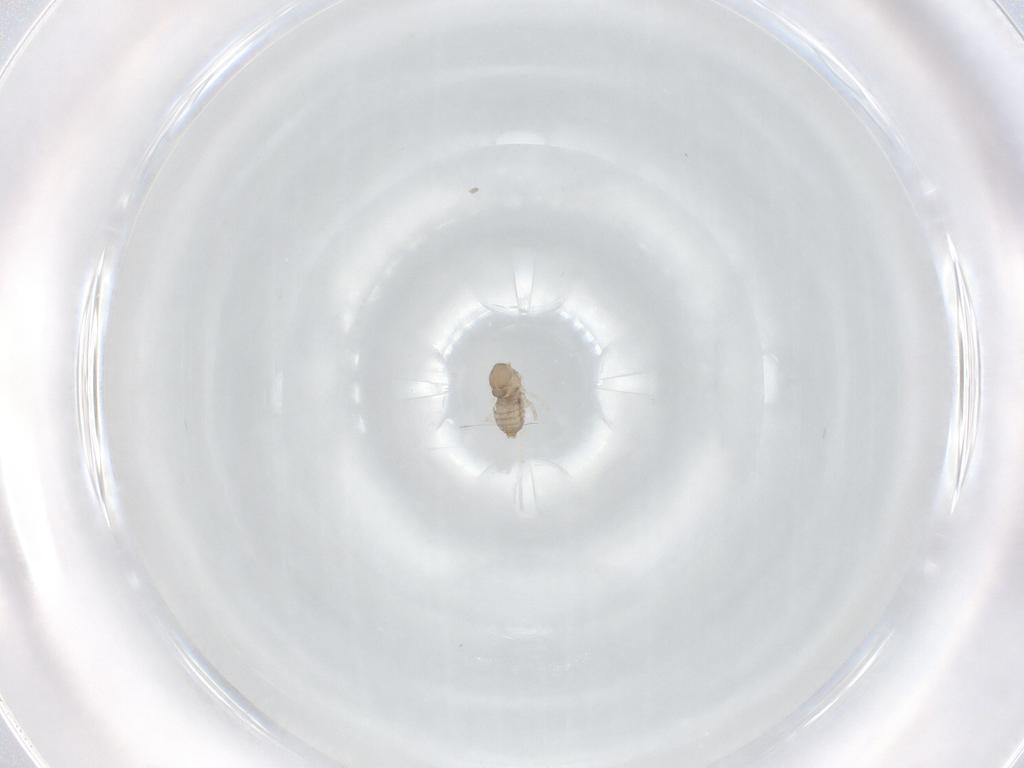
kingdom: Animalia
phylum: Arthropoda
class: Insecta
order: Diptera
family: Cecidomyiidae
